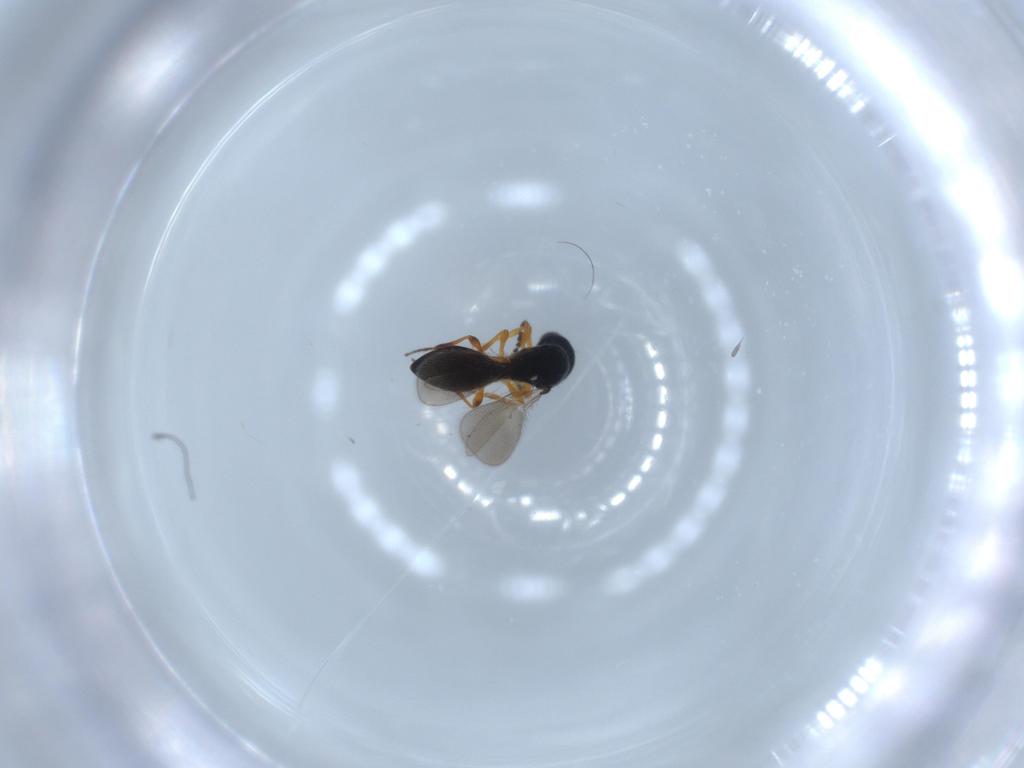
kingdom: Animalia
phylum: Arthropoda
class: Insecta
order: Hymenoptera
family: Platygastridae
